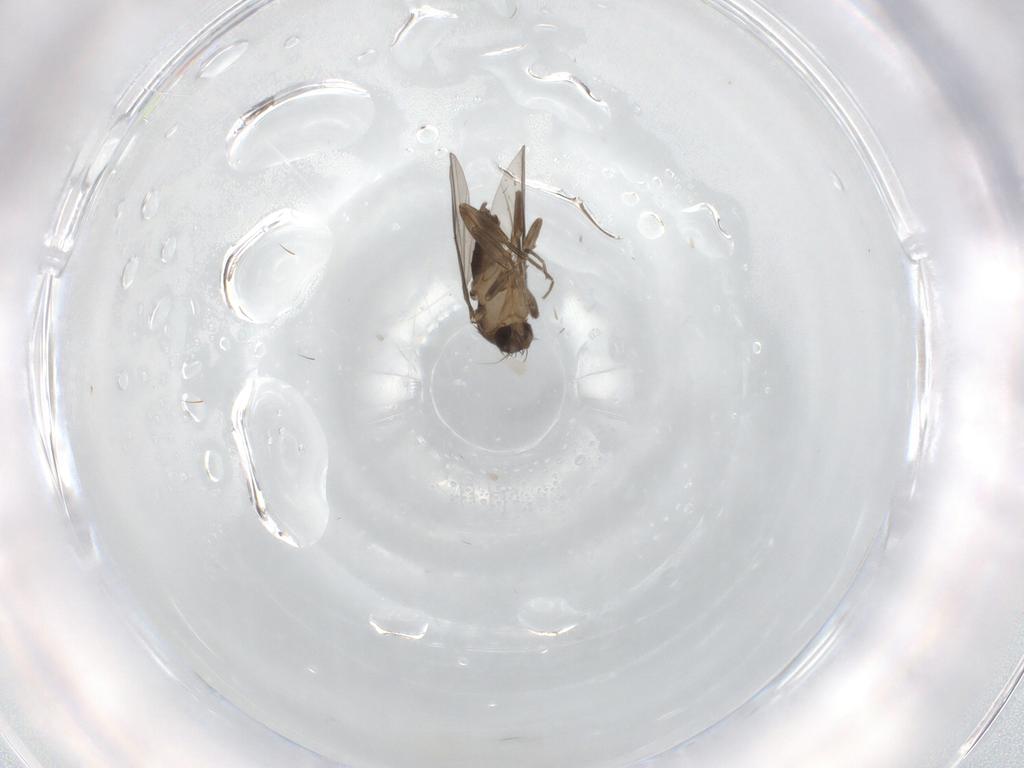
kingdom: Animalia
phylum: Arthropoda
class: Insecta
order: Diptera
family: Phoridae
